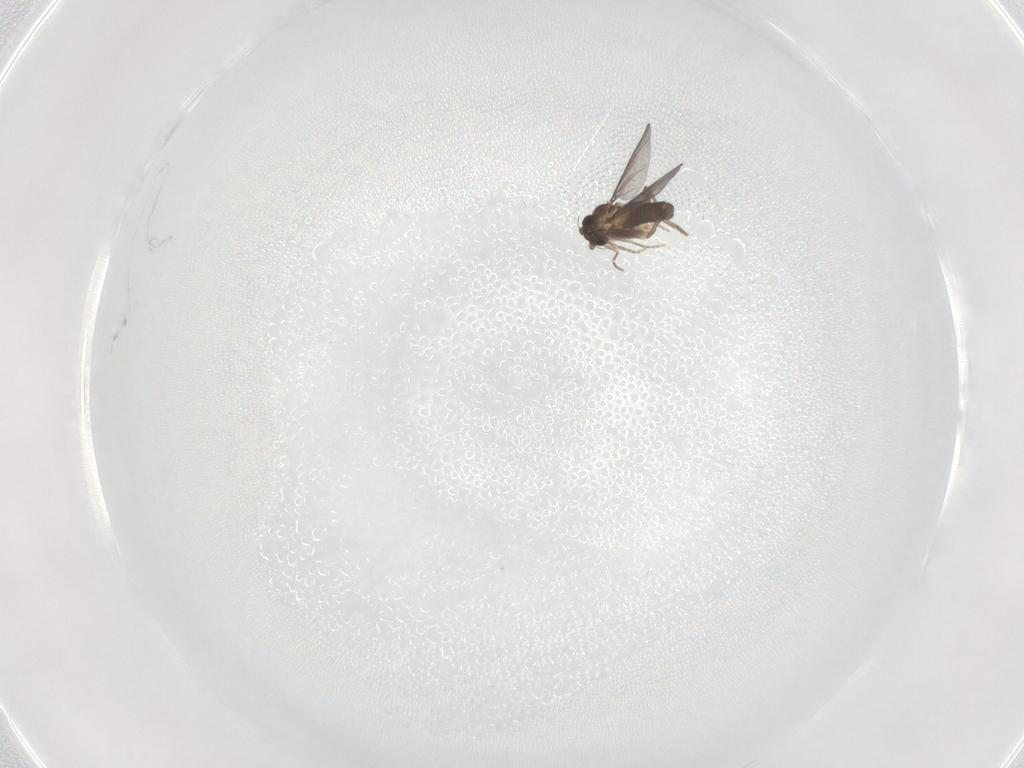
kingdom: Animalia
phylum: Arthropoda
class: Insecta
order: Diptera
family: Phoridae
